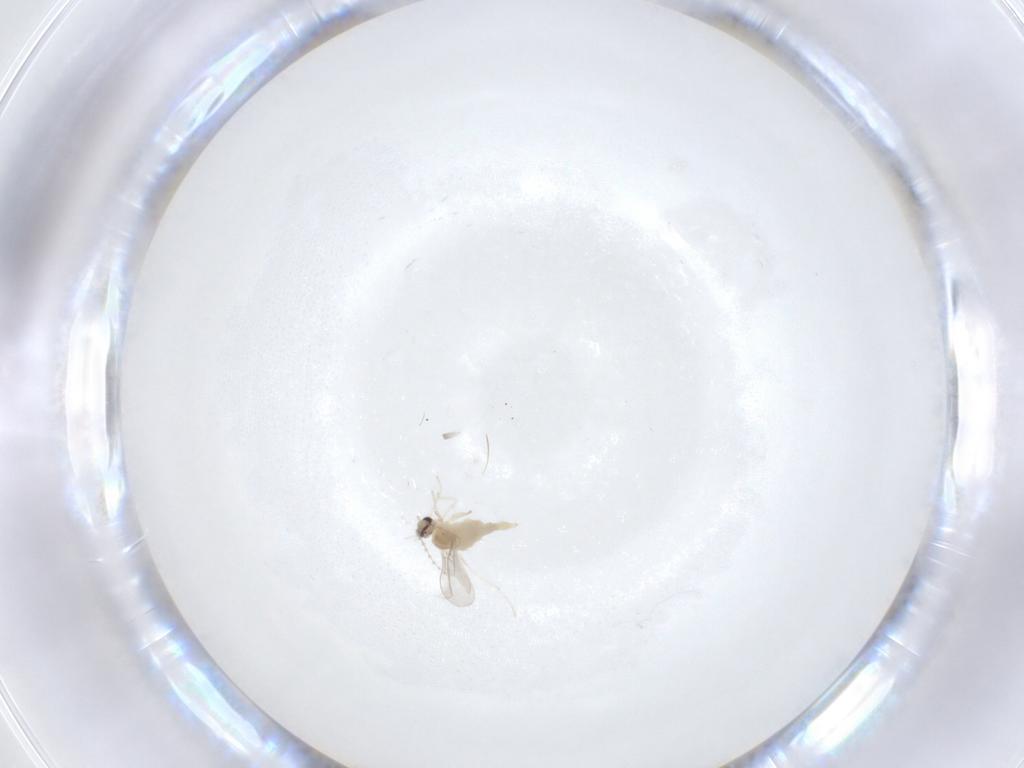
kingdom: Animalia
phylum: Arthropoda
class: Insecta
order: Diptera
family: Cecidomyiidae
